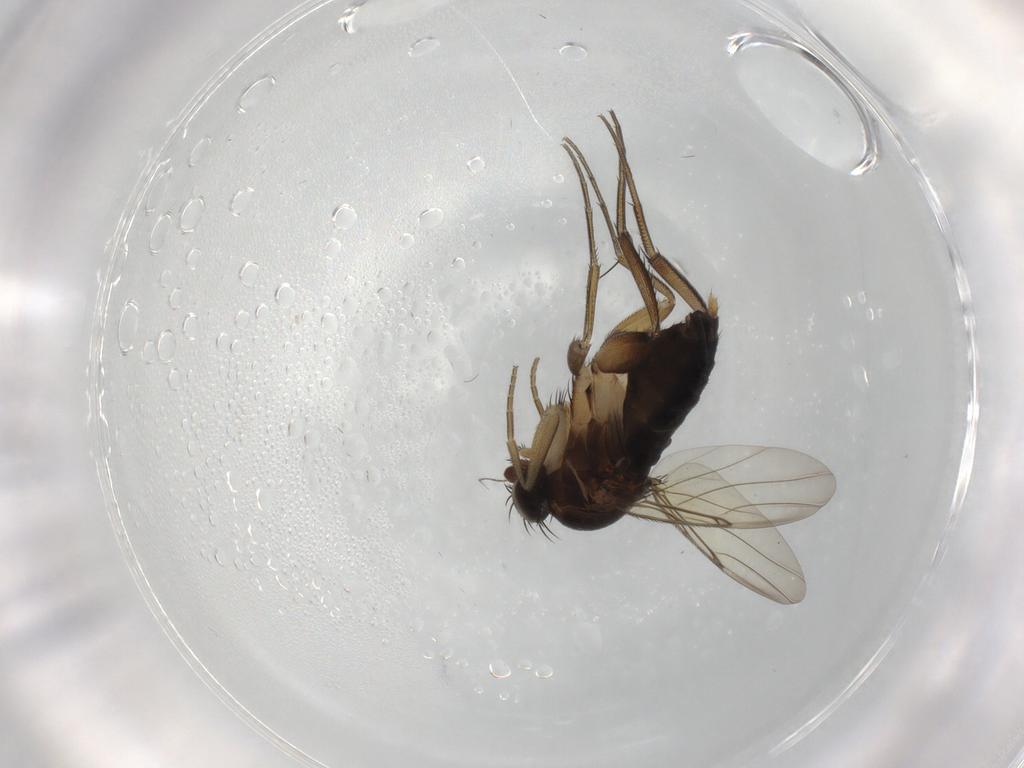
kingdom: Animalia
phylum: Arthropoda
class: Insecta
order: Diptera
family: Phoridae
